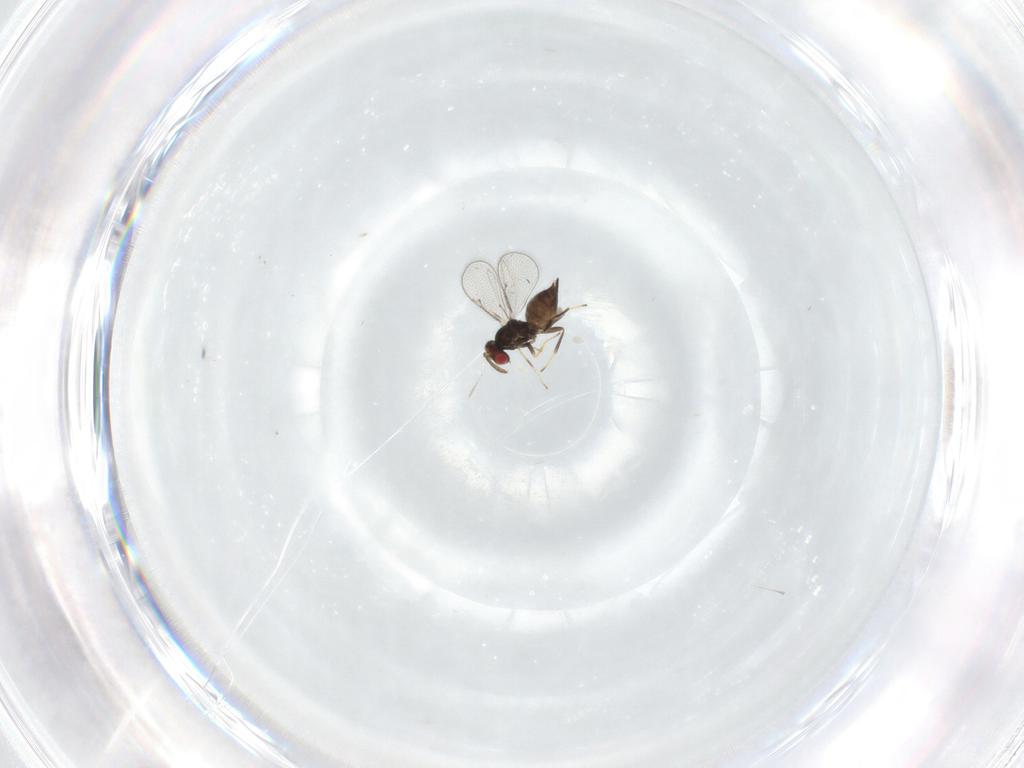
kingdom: Animalia
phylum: Arthropoda
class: Insecta
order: Hymenoptera
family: Eulophidae
